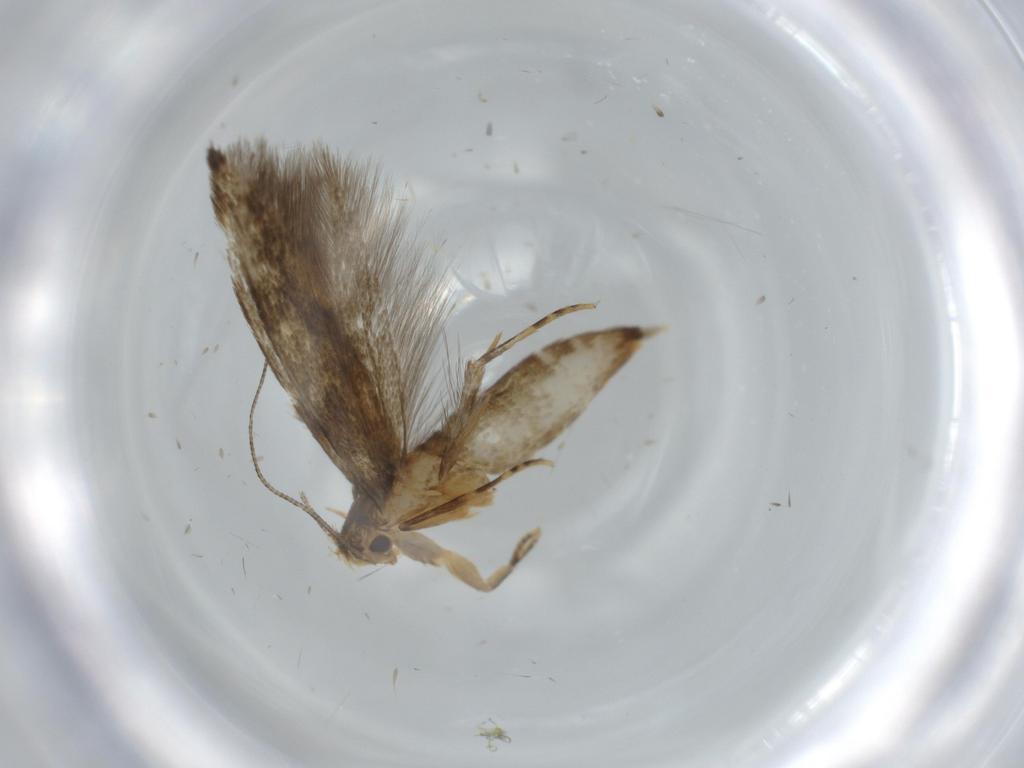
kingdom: Animalia
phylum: Arthropoda
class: Insecta
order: Lepidoptera
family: Tineidae
